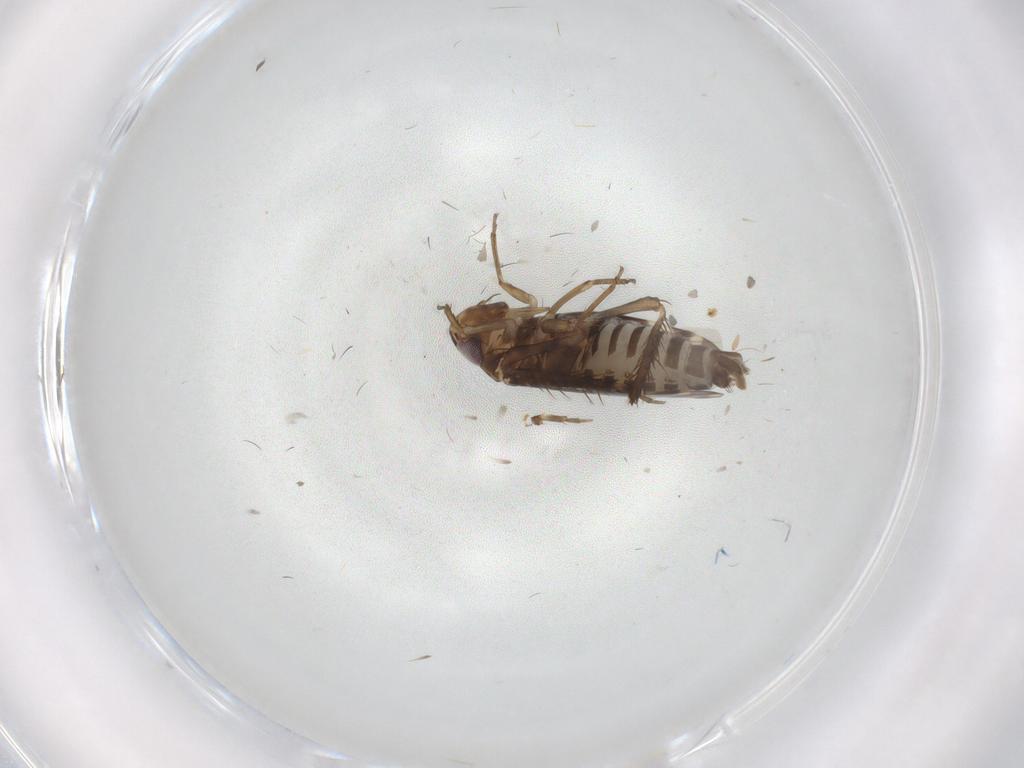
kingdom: Animalia
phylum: Arthropoda
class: Insecta
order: Hemiptera
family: Cicadellidae
